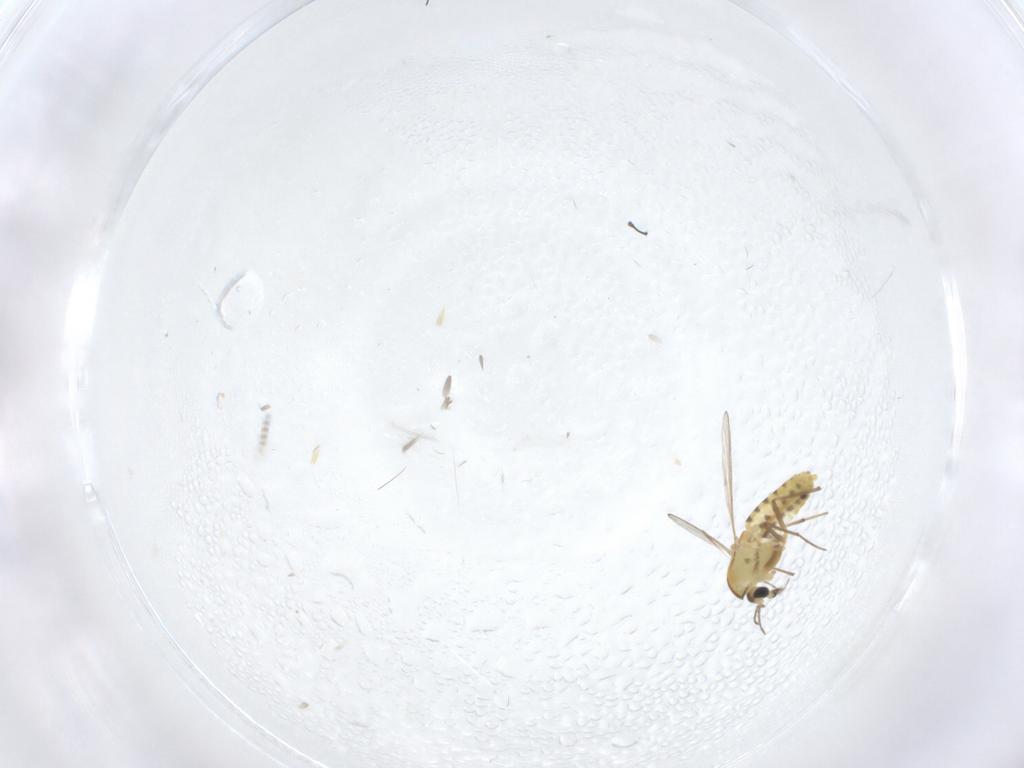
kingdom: Animalia
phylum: Arthropoda
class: Insecta
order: Diptera
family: Chironomidae
